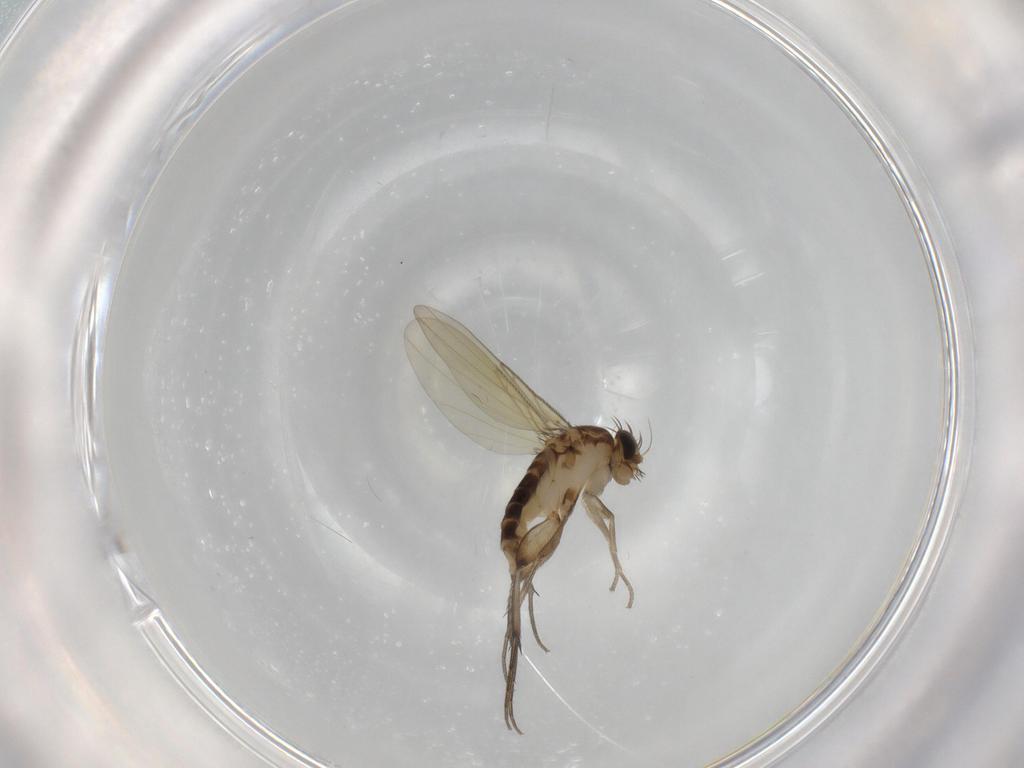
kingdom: Animalia
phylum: Arthropoda
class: Insecta
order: Diptera
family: Phoridae
